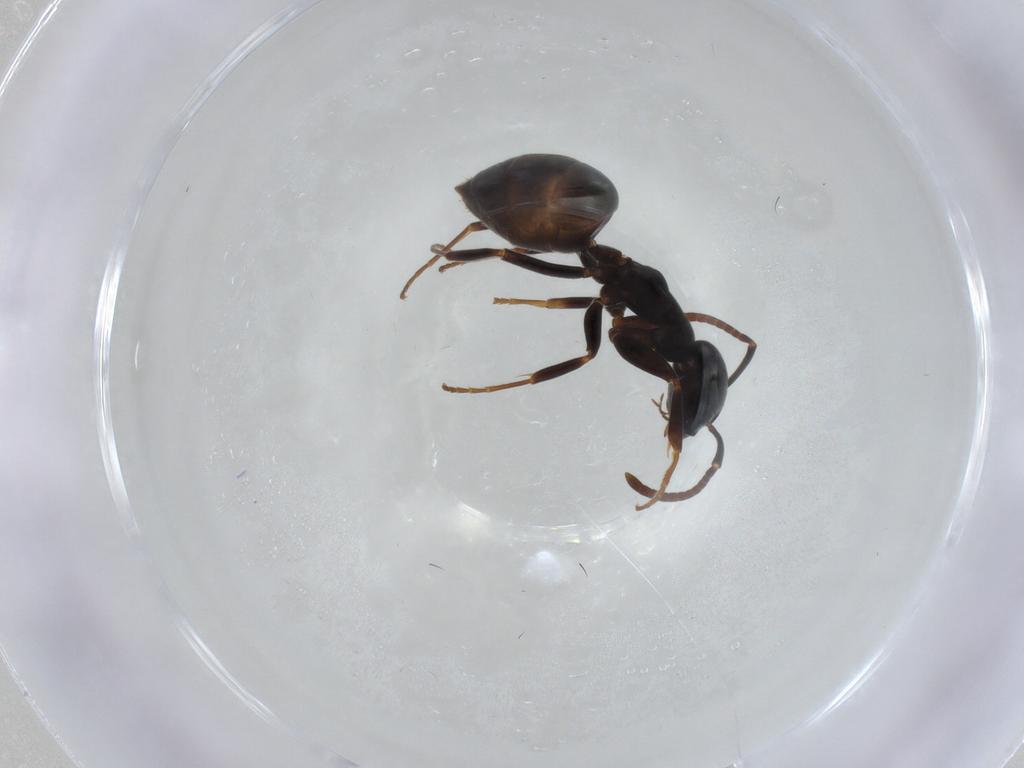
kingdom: Animalia
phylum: Arthropoda
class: Insecta
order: Hymenoptera
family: Formicidae
